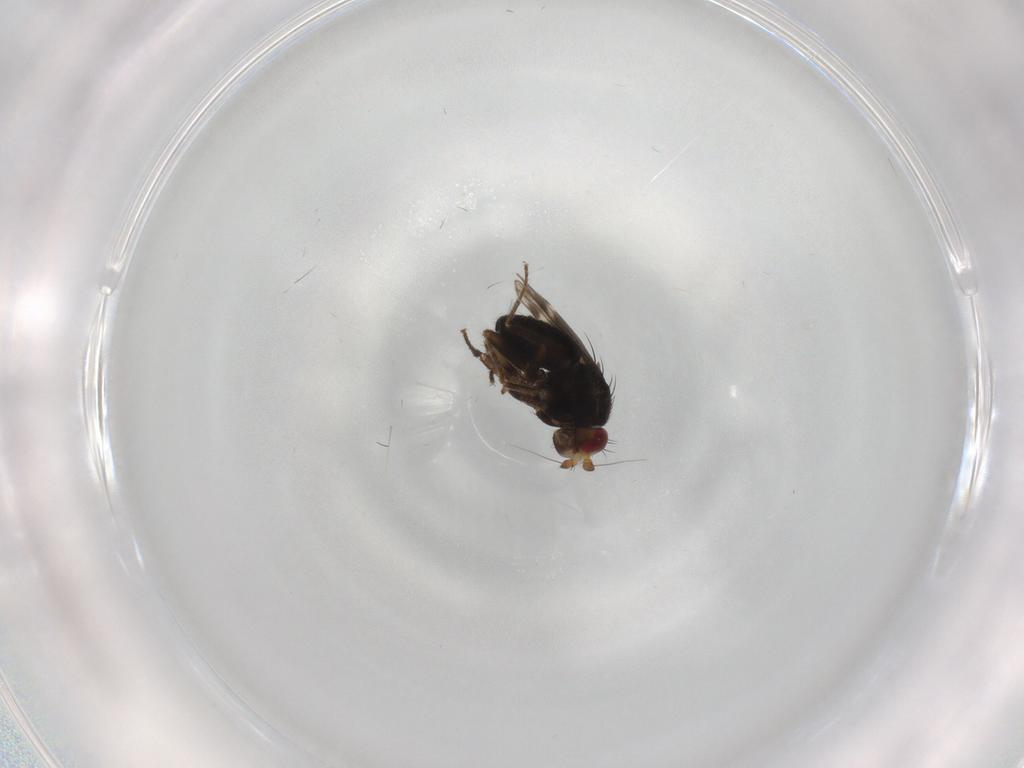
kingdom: Animalia
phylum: Arthropoda
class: Insecta
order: Diptera
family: Sphaeroceridae
